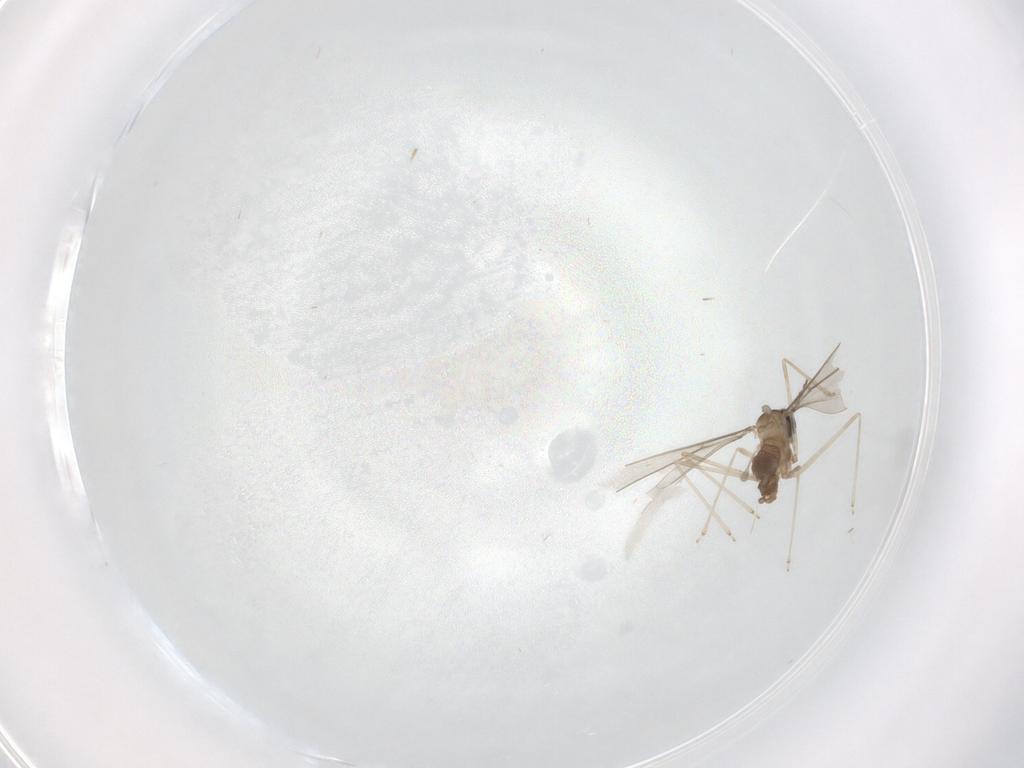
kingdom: Animalia
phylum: Arthropoda
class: Insecta
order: Diptera
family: Cecidomyiidae
